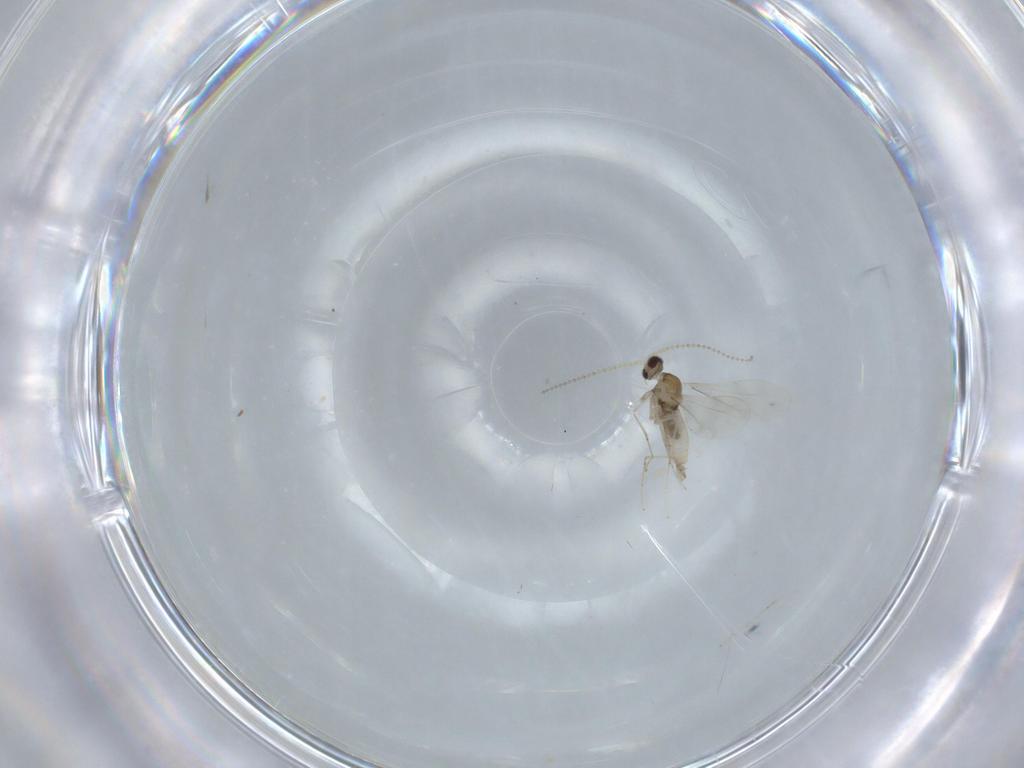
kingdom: Animalia
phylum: Arthropoda
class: Insecta
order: Diptera
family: Cecidomyiidae
